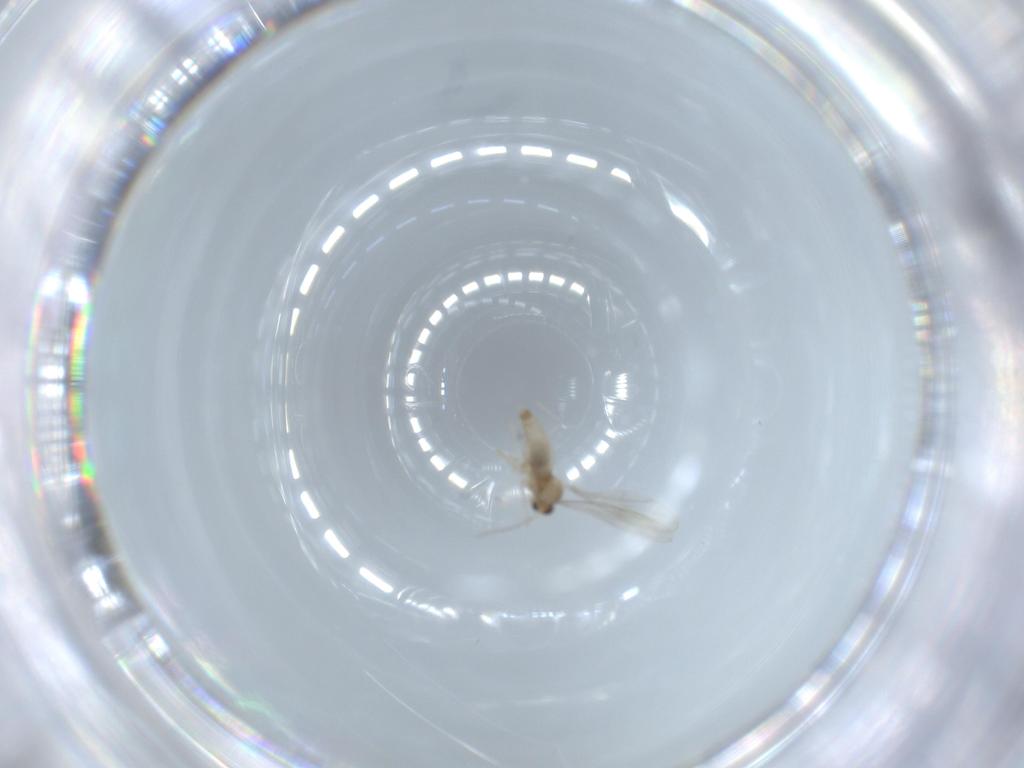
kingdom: Animalia
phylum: Arthropoda
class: Insecta
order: Diptera
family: Cecidomyiidae
